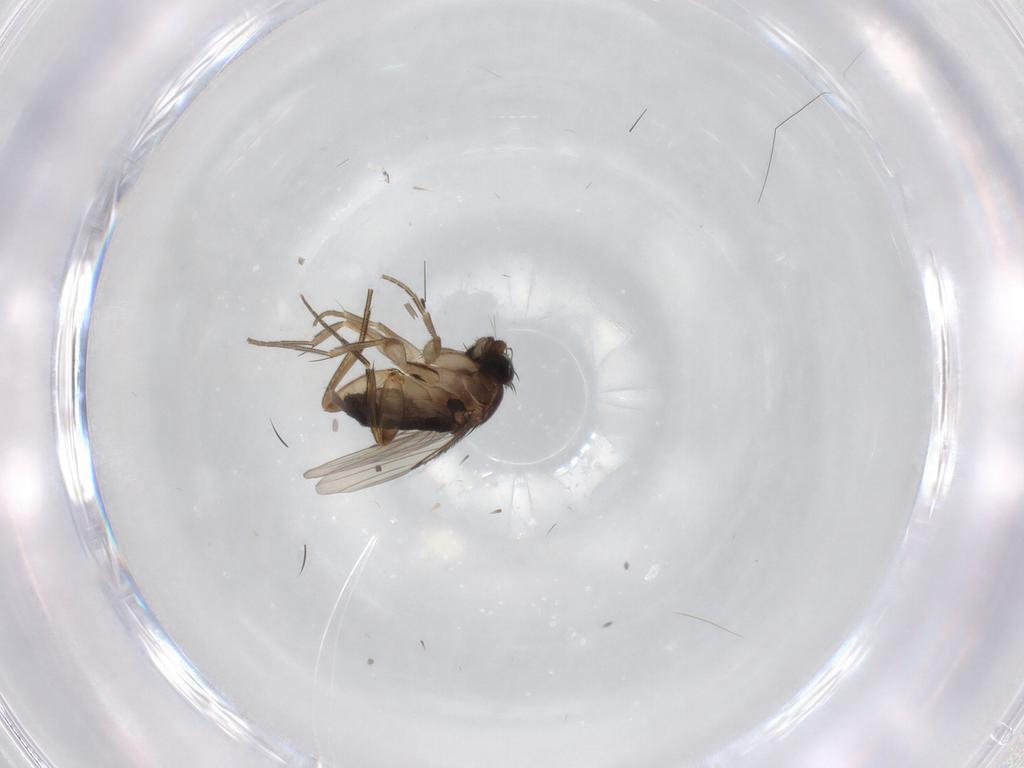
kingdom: Animalia
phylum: Arthropoda
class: Insecta
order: Diptera
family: Phoridae
